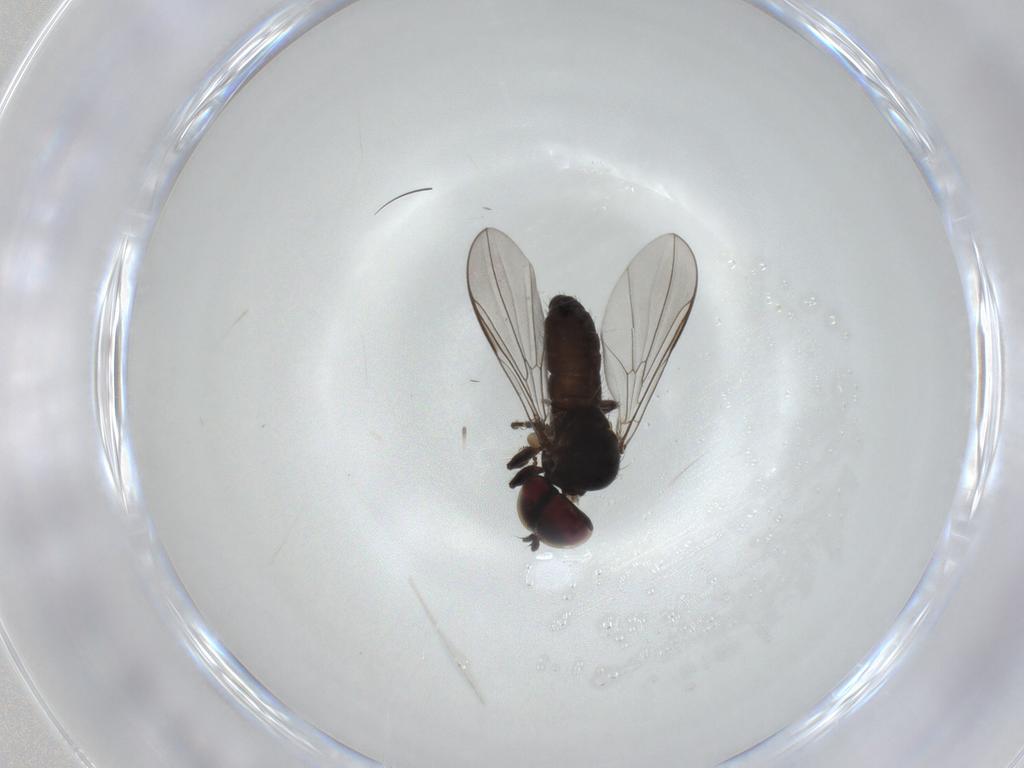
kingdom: Animalia
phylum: Arthropoda
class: Insecta
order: Diptera
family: Pipunculidae
